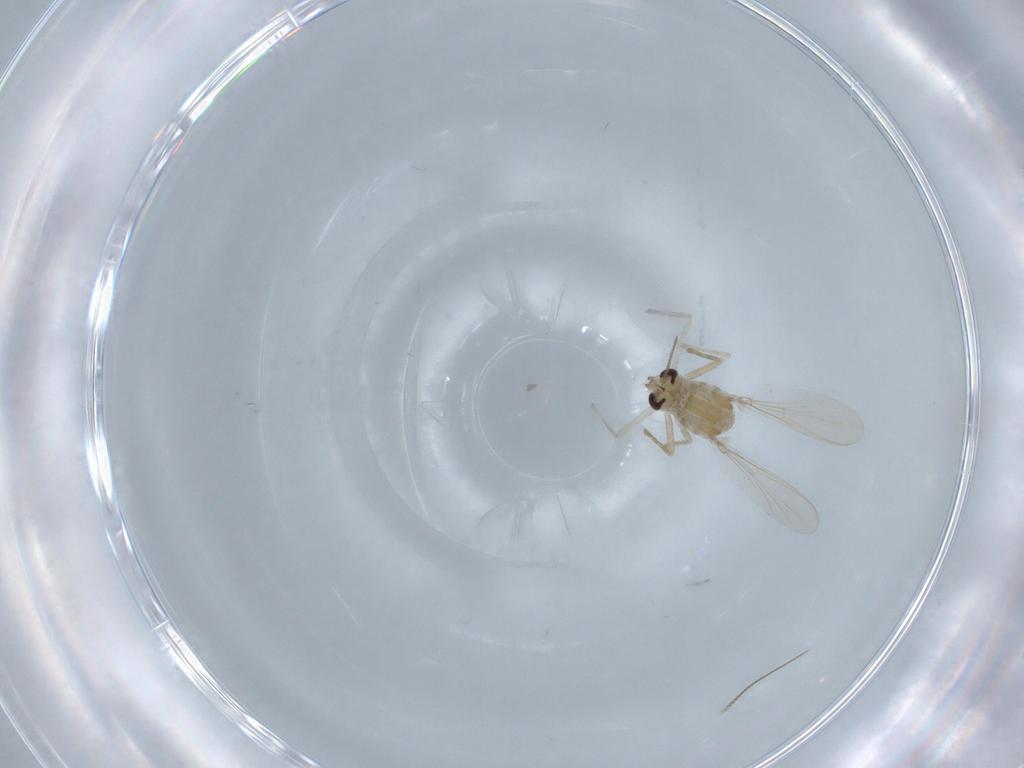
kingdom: Animalia
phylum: Arthropoda
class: Insecta
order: Diptera
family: Chironomidae
